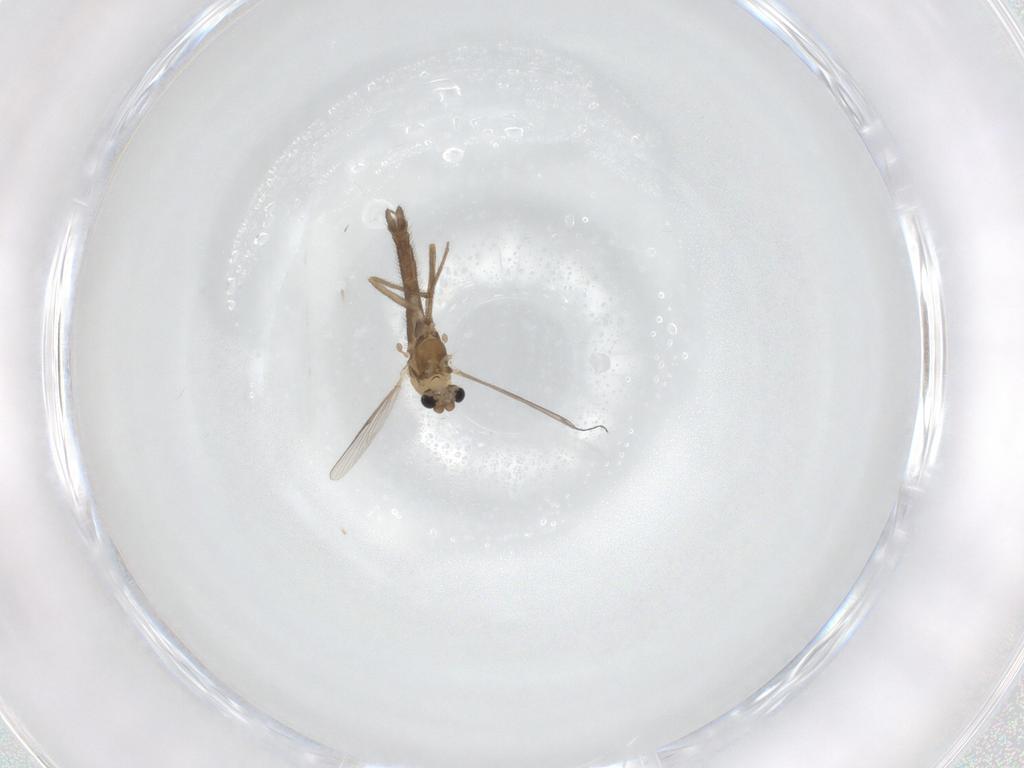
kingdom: Animalia
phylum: Arthropoda
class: Insecta
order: Diptera
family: Chironomidae
